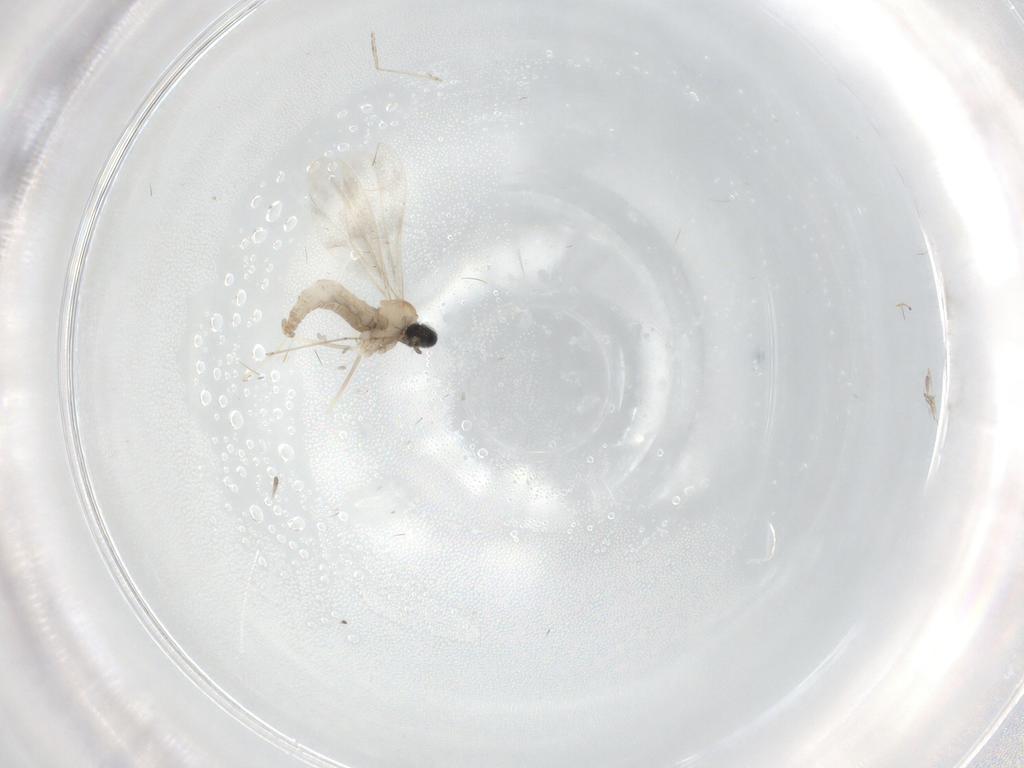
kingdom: Animalia
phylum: Arthropoda
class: Insecta
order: Diptera
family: Cecidomyiidae
